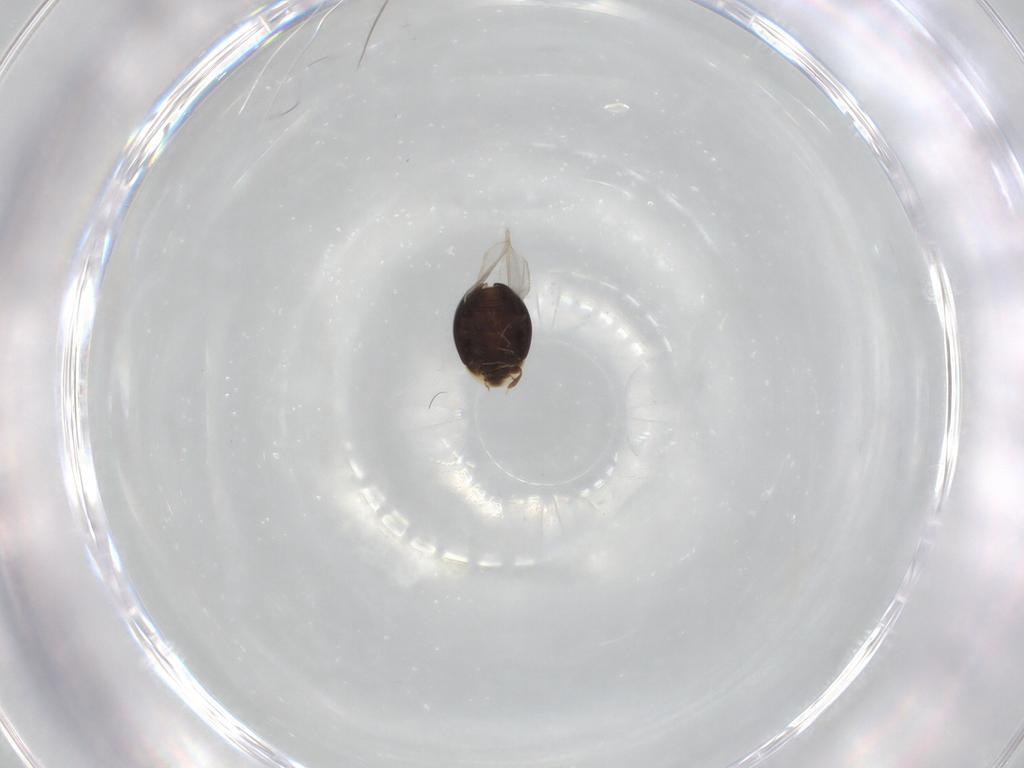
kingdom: Animalia
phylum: Arthropoda
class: Insecta
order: Coleoptera
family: Corylophidae
